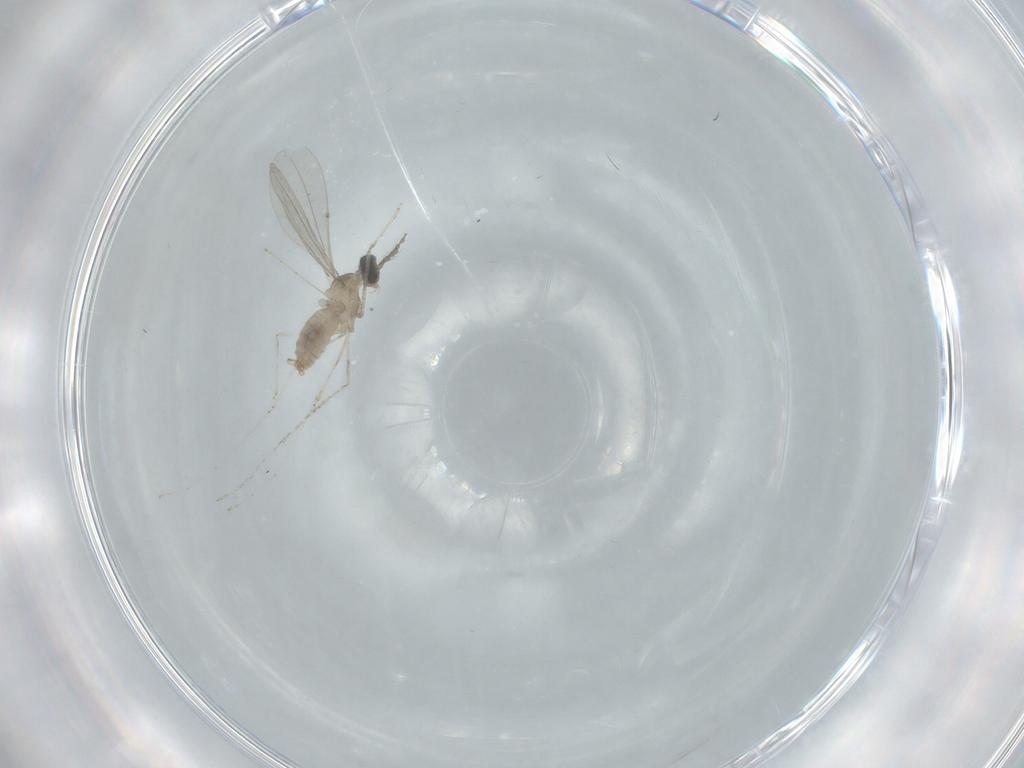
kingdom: Animalia
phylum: Arthropoda
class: Insecta
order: Diptera
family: Cecidomyiidae
